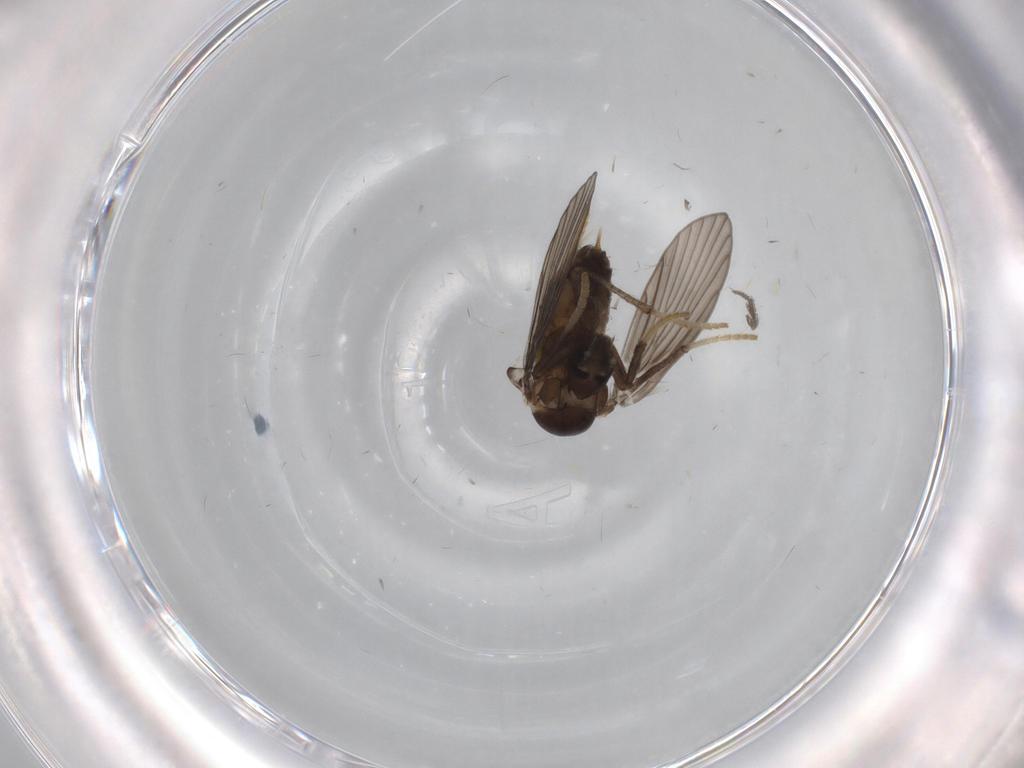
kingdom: Animalia
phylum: Arthropoda
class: Insecta
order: Diptera
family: Psychodidae
